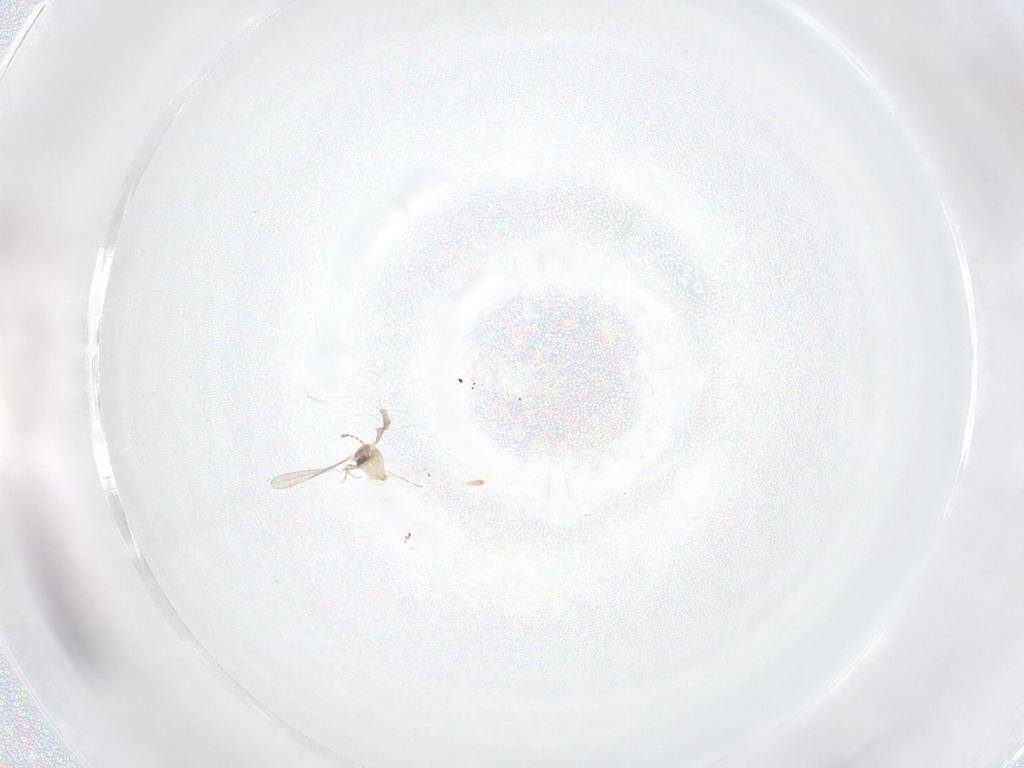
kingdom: Animalia
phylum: Arthropoda
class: Insecta
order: Diptera
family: Cecidomyiidae
